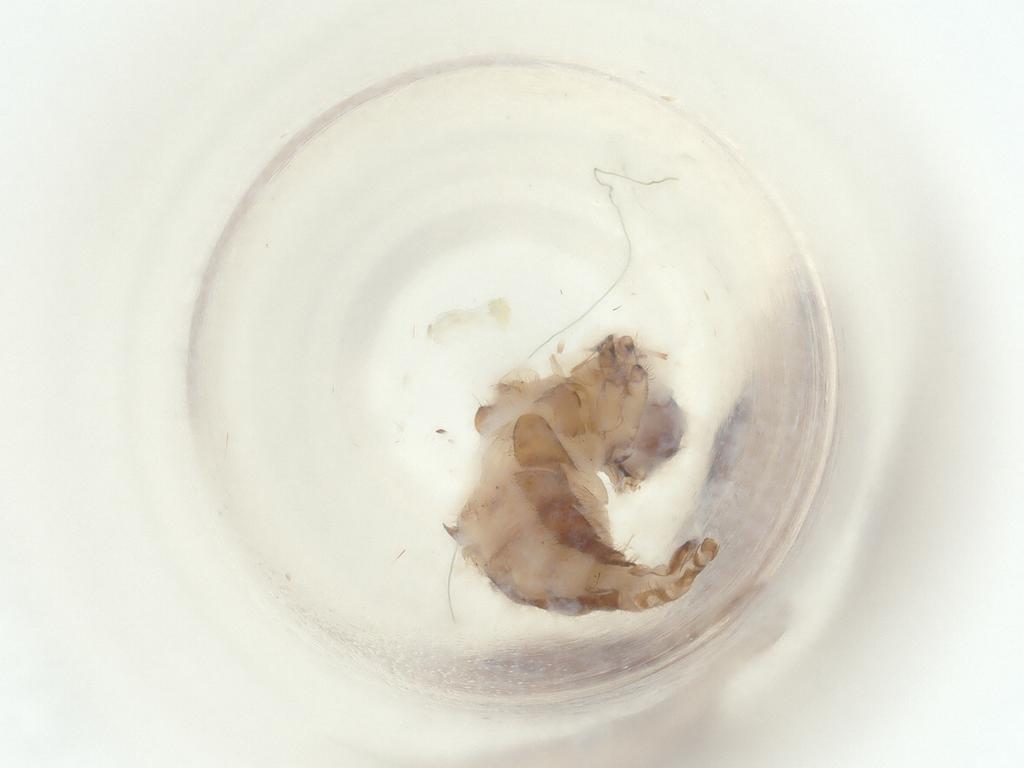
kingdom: Animalia
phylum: Arthropoda
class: Insecta
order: Diptera
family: Sciaridae
